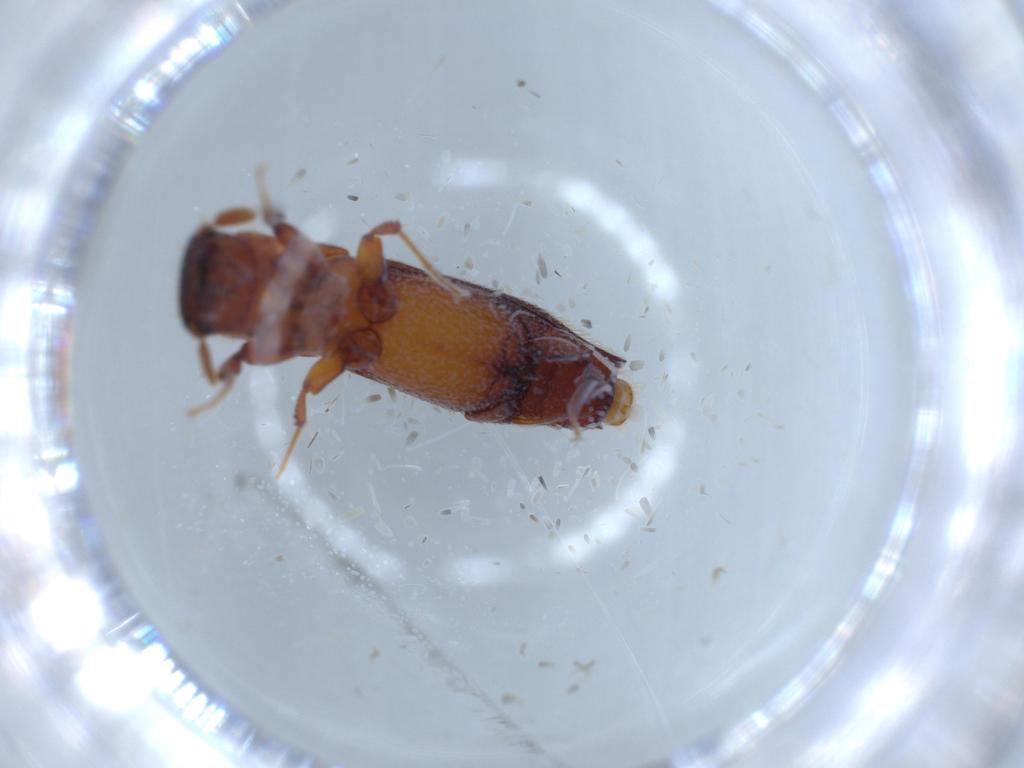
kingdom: Animalia
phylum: Arthropoda
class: Insecta
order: Coleoptera
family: Curculionidae
